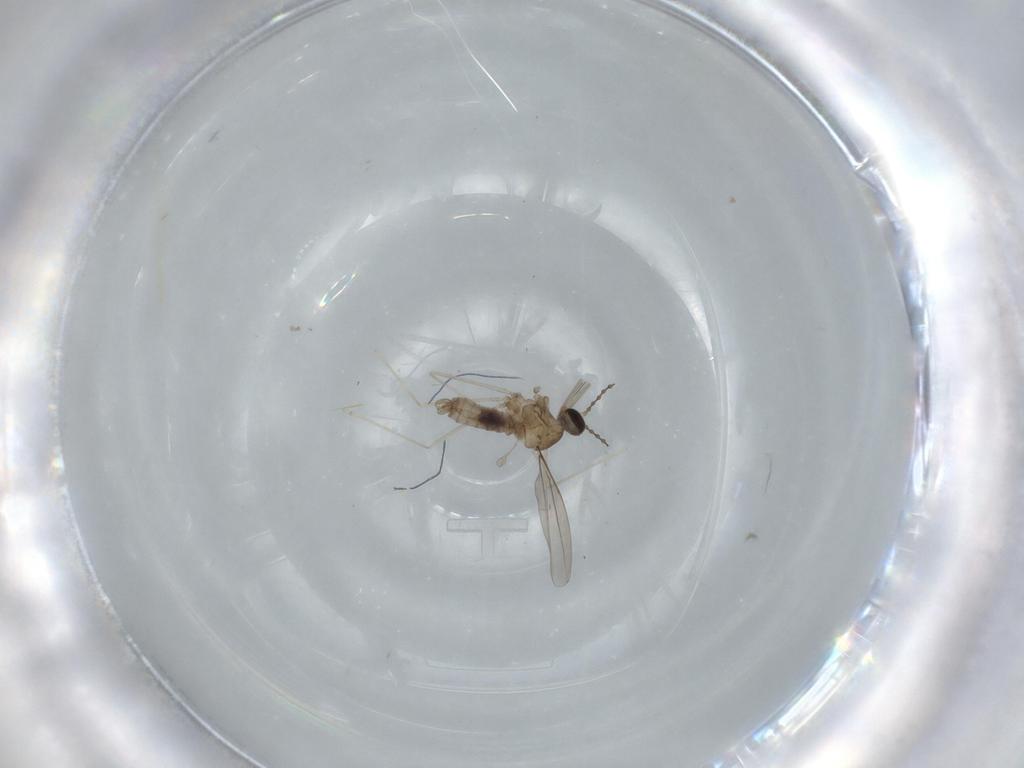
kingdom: Animalia
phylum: Arthropoda
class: Insecta
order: Diptera
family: Cecidomyiidae
